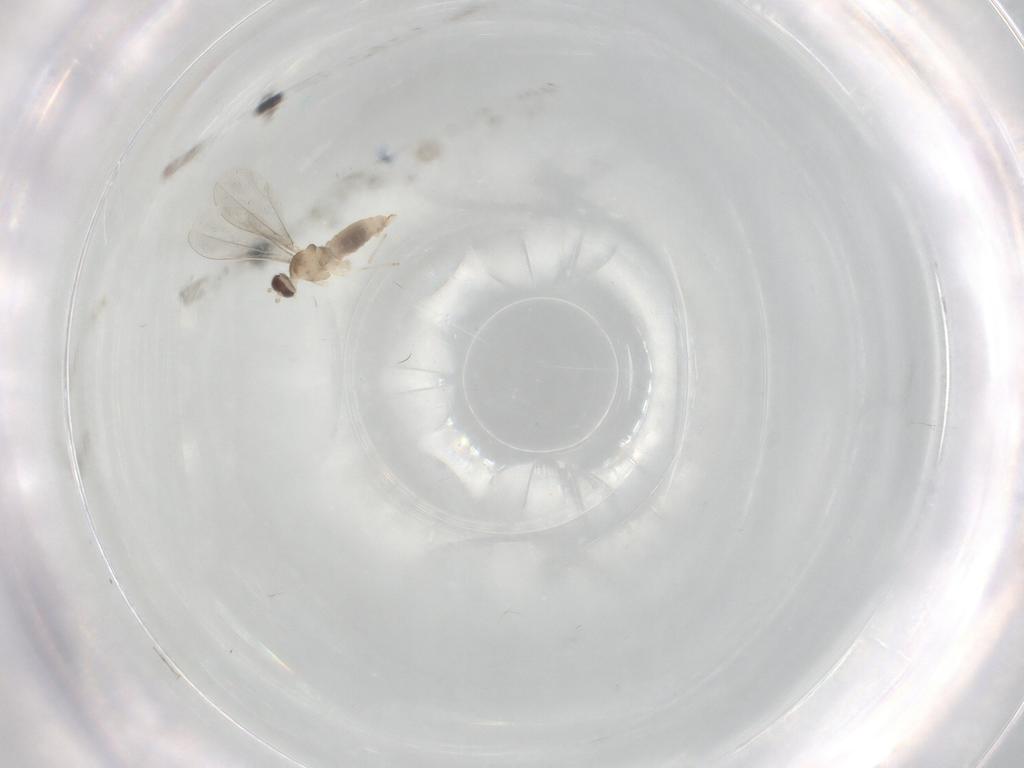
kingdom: Animalia
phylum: Arthropoda
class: Insecta
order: Diptera
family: Cecidomyiidae
